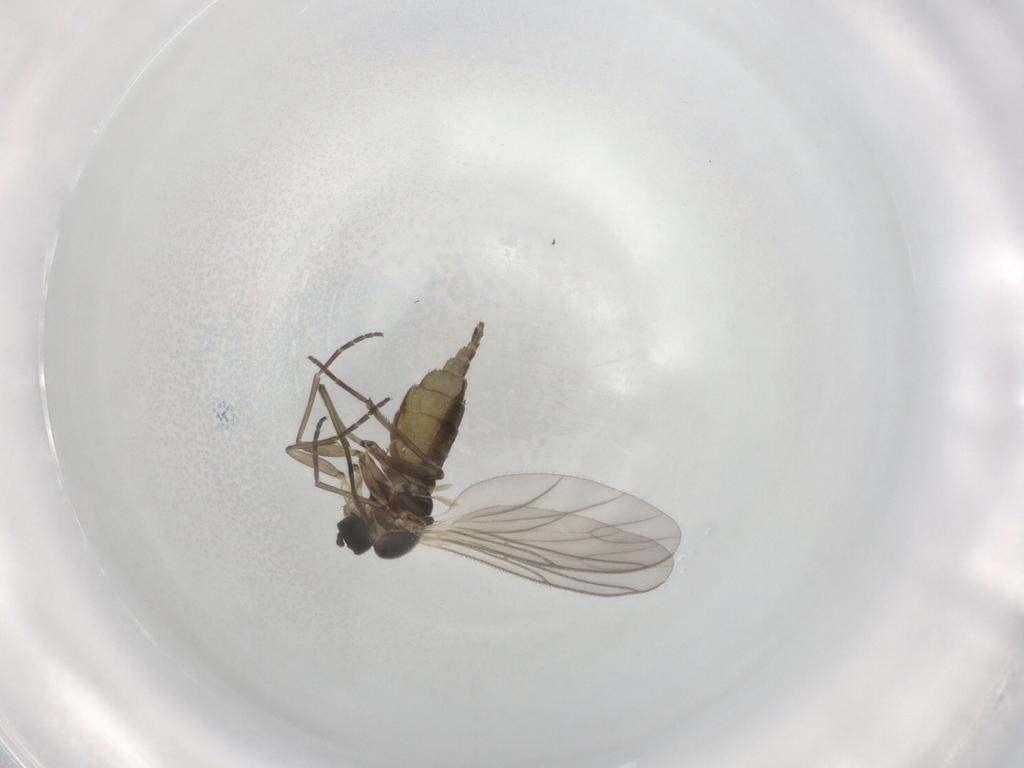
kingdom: Animalia
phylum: Arthropoda
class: Insecta
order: Diptera
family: Cecidomyiidae
